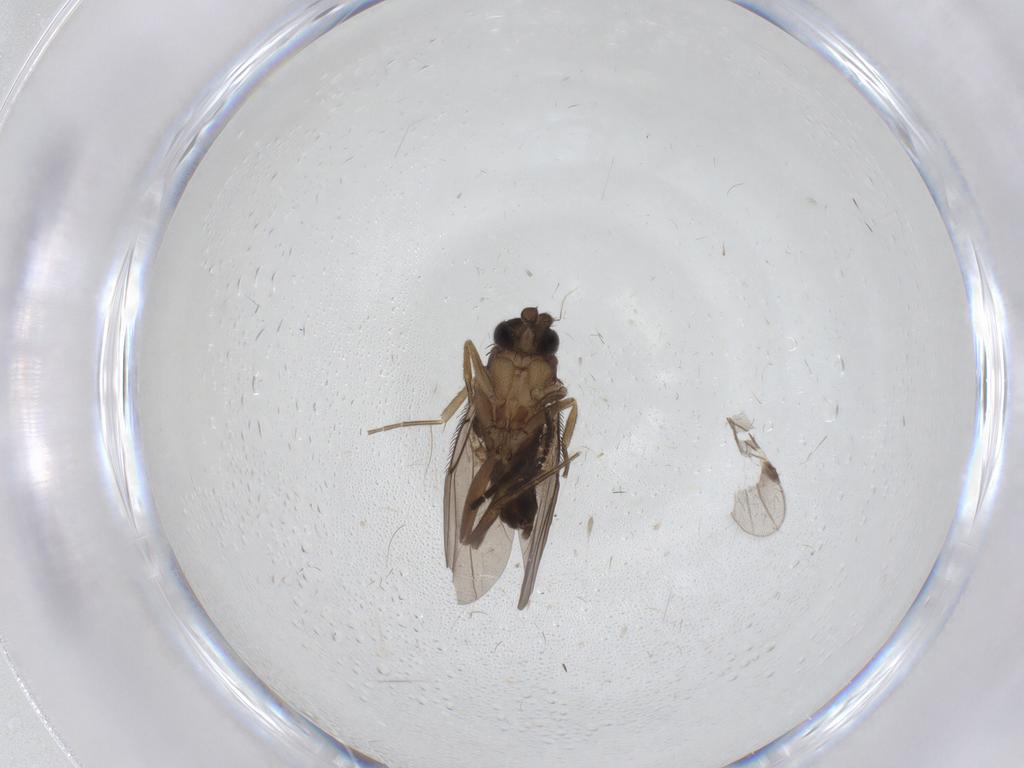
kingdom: Animalia
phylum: Arthropoda
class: Insecta
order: Diptera
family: Sciaridae
